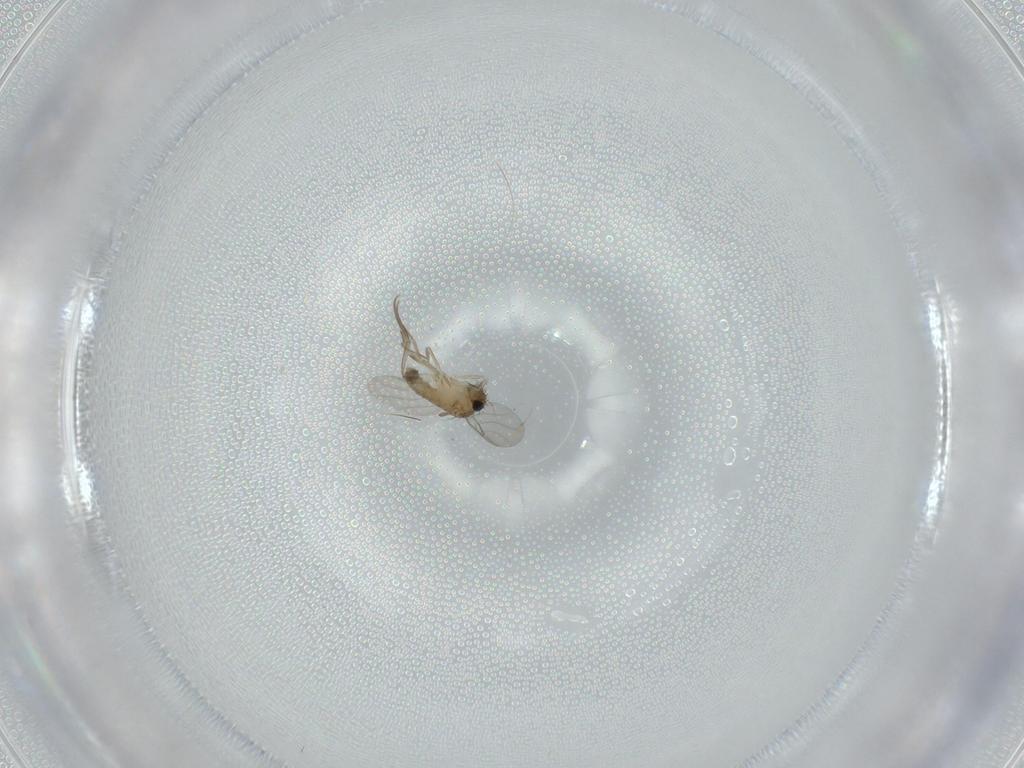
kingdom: Animalia
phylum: Arthropoda
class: Insecta
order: Diptera
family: Phoridae
